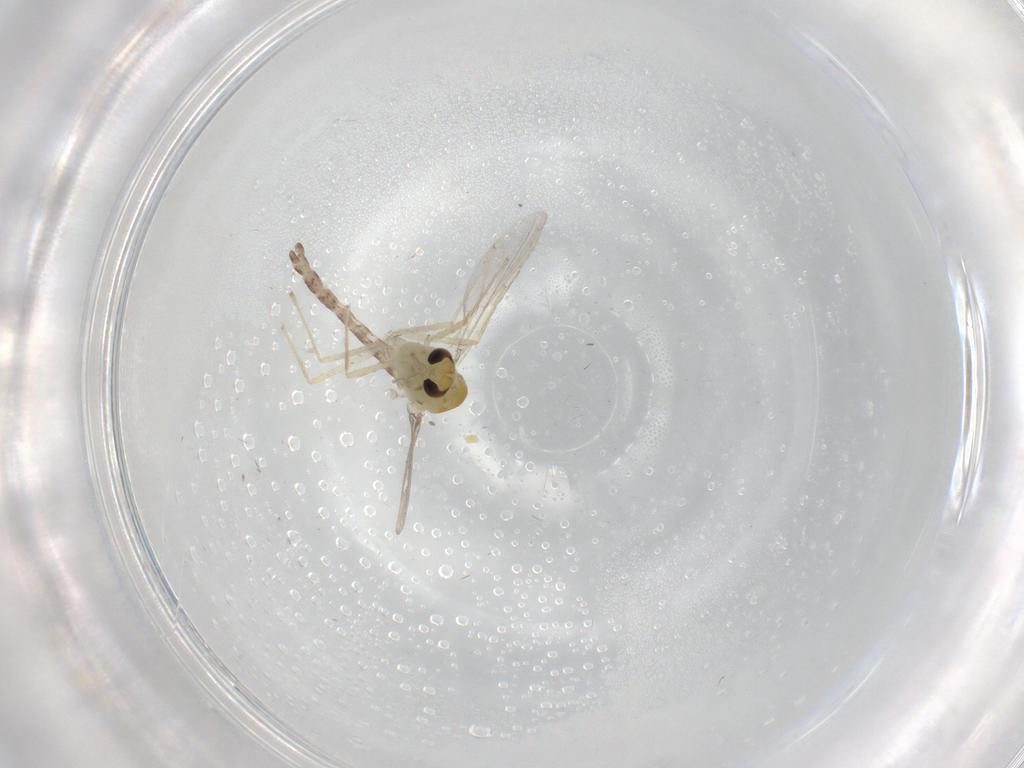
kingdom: Animalia
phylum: Arthropoda
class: Insecta
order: Diptera
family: Chironomidae
